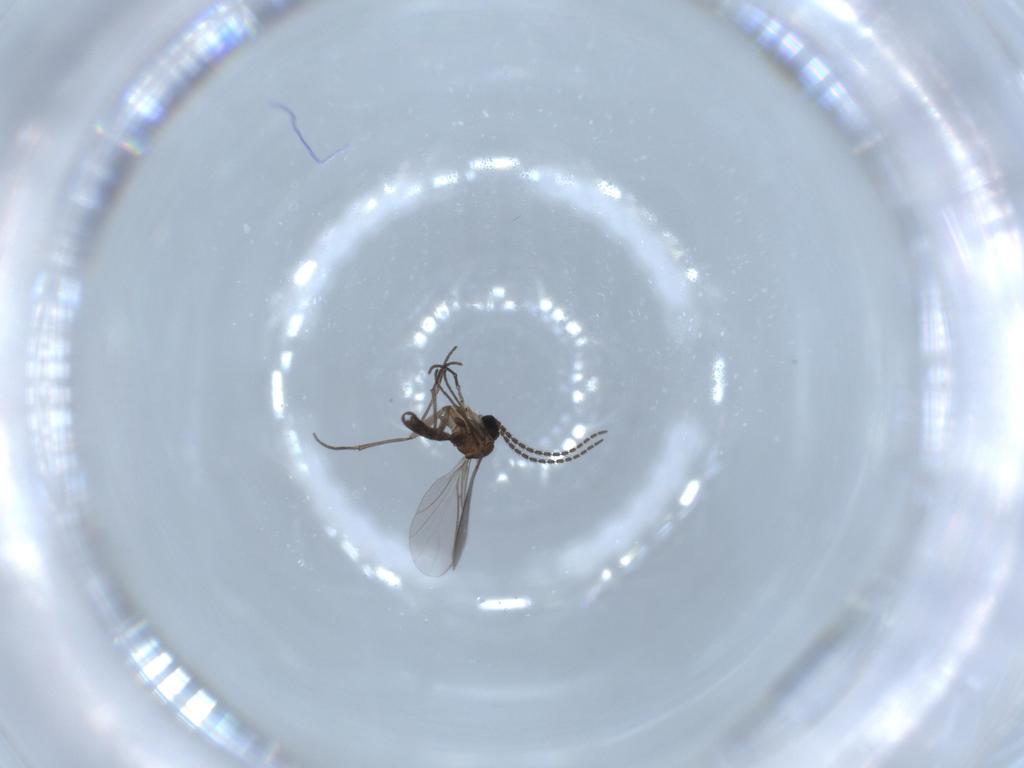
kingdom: Animalia
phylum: Arthropoda
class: Insecta
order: Diptera
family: Sciaridae
